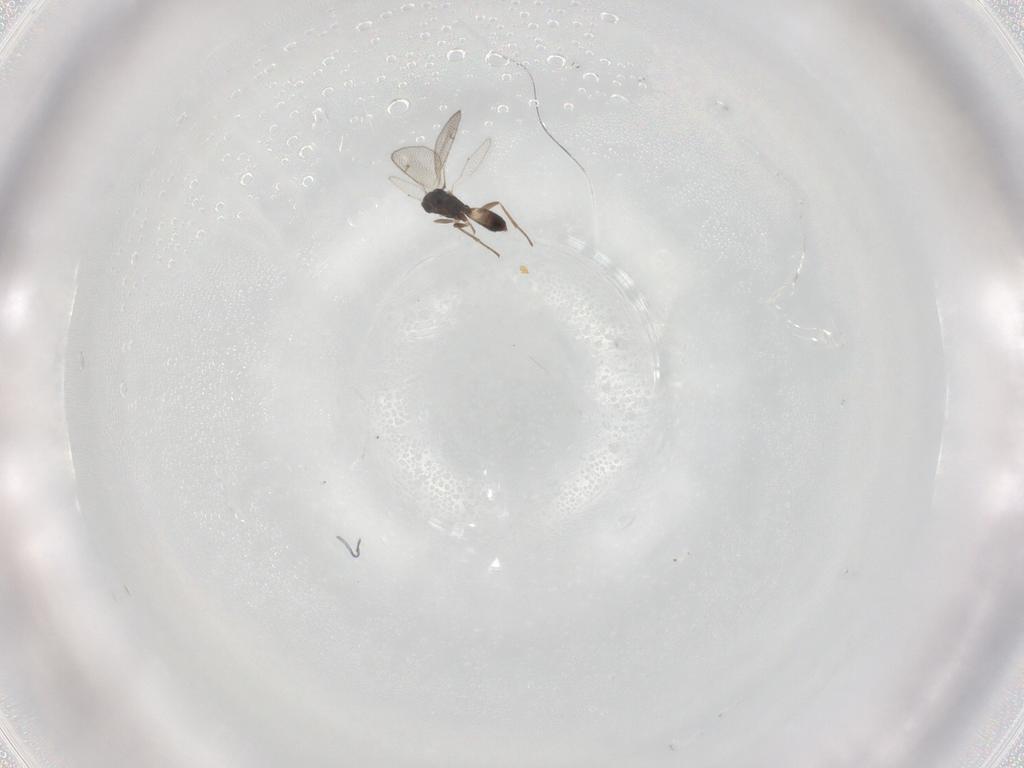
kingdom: Animalia
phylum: Arthropoda
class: Insecta
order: Hymenoptera
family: Pteromalidae
